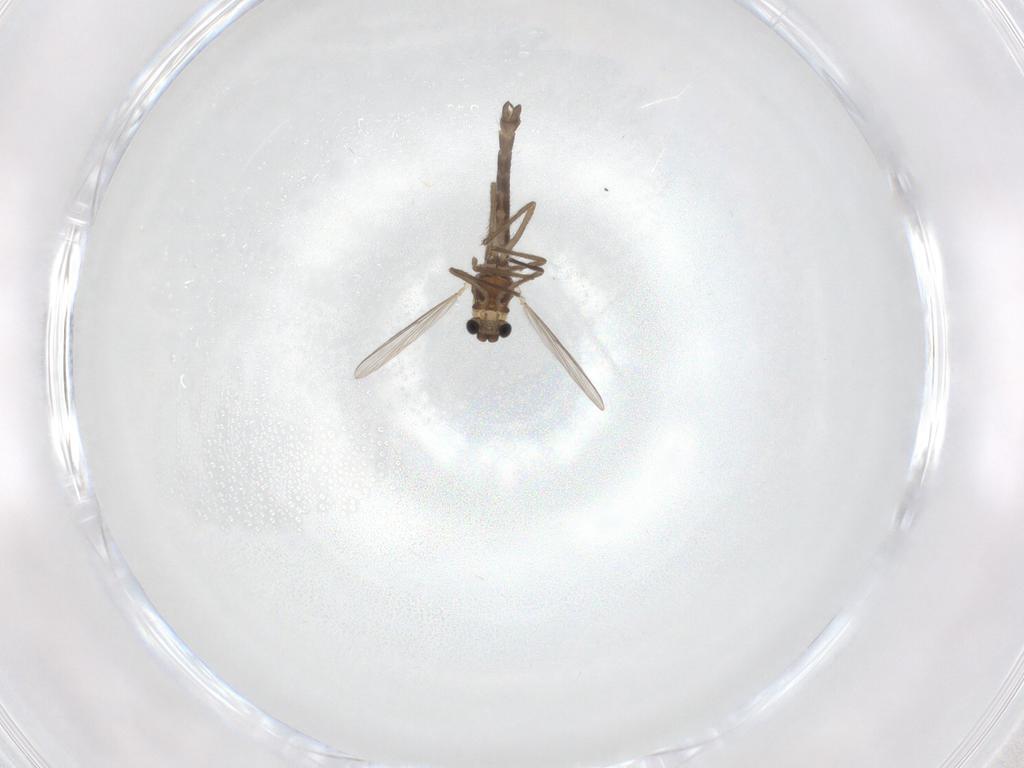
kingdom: Animalia
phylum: Arthropoda
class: Insecta
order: Diptera
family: Chironomidae
